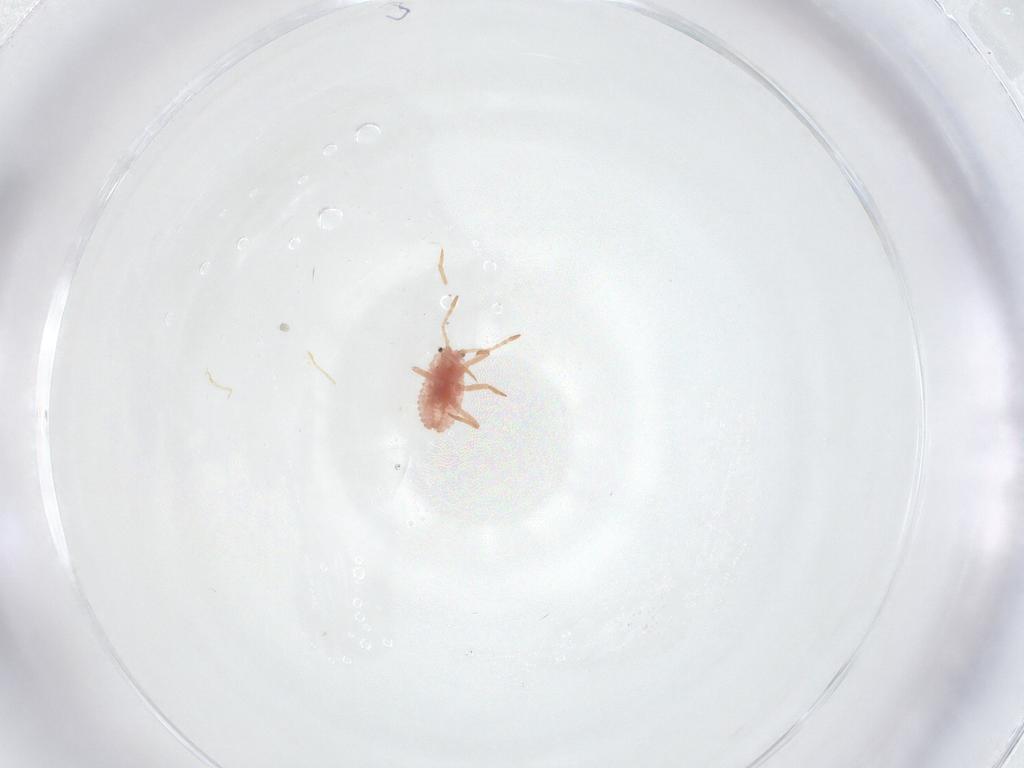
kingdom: Animalia
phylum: Arthropoda
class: Insecta
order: Hemiptera
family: Coccoidea_incertae_sedis
